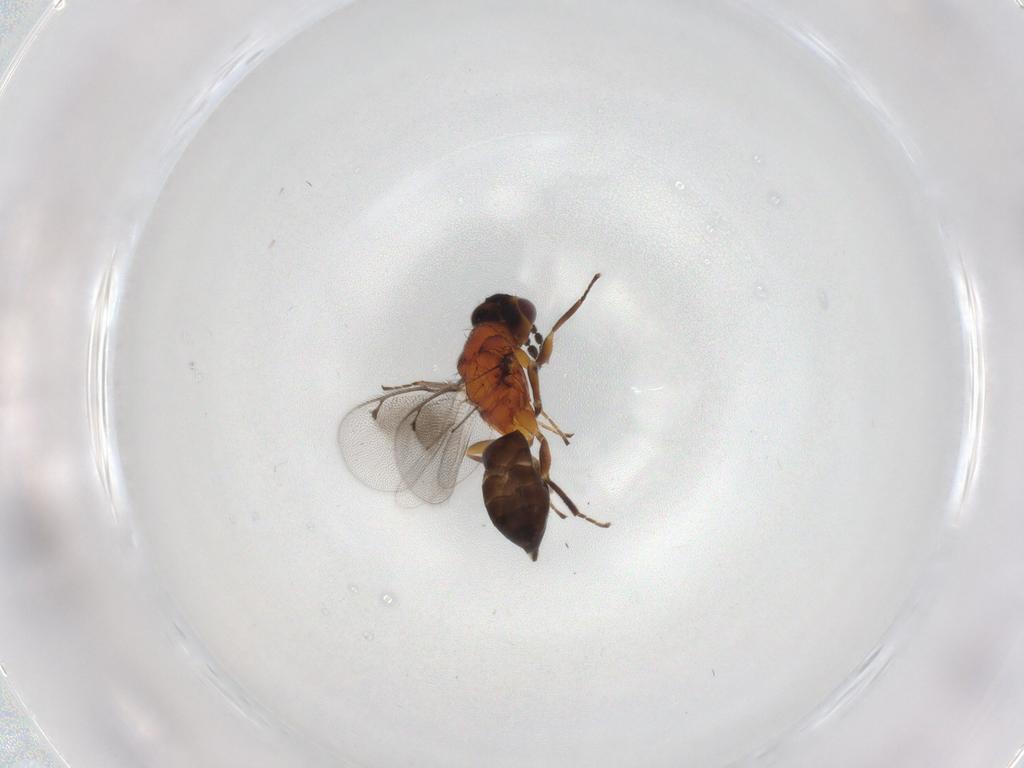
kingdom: Animalia
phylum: Arthropoda
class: Insecta
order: Hymenoptera
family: Eulophidae
